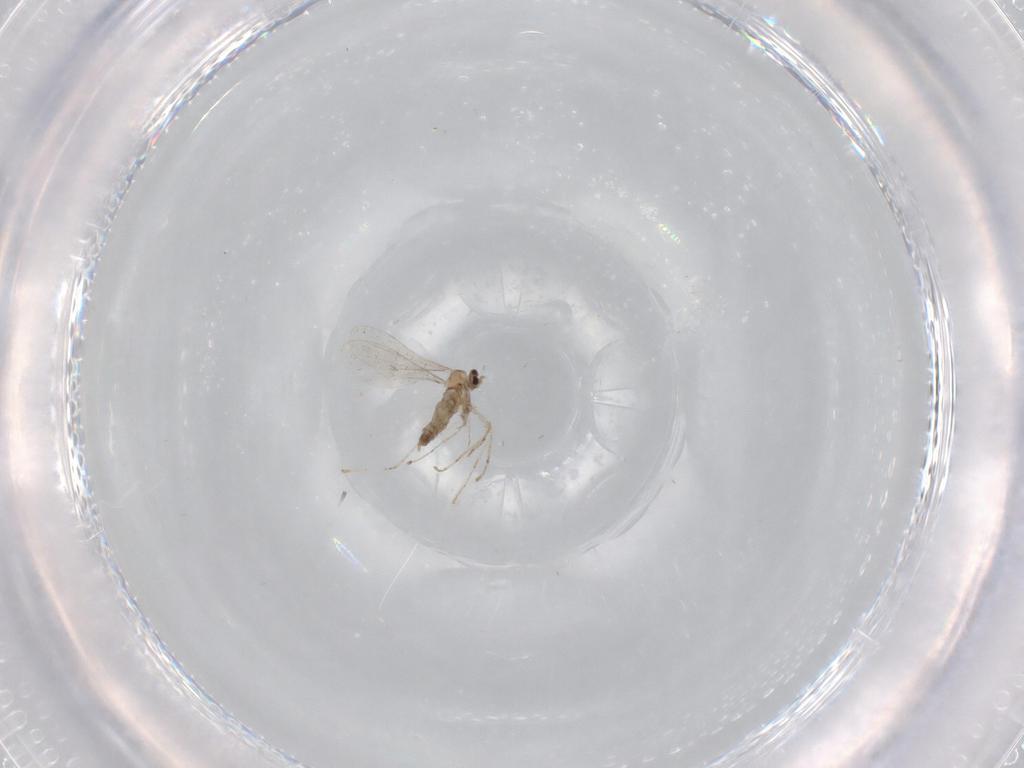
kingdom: Animalia
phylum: Arthropoda
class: Insecta
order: Diptera
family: Cecidomyiidae
